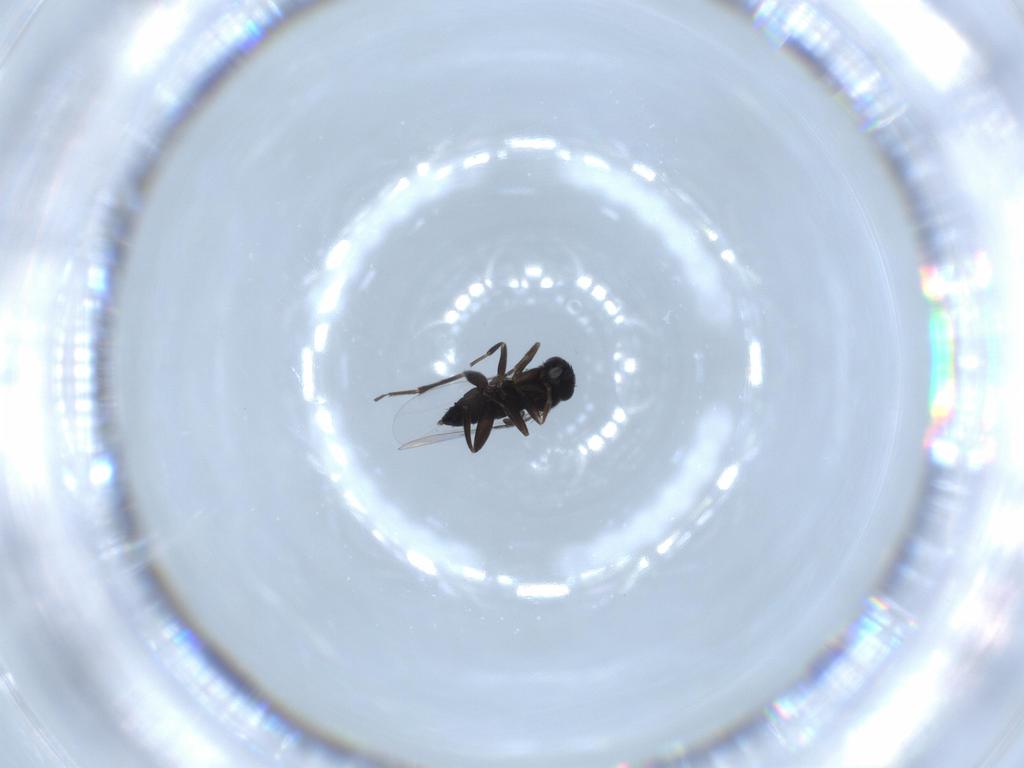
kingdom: Animalia
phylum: Arthropoda
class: Insecta
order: Diptera
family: Phoridae
